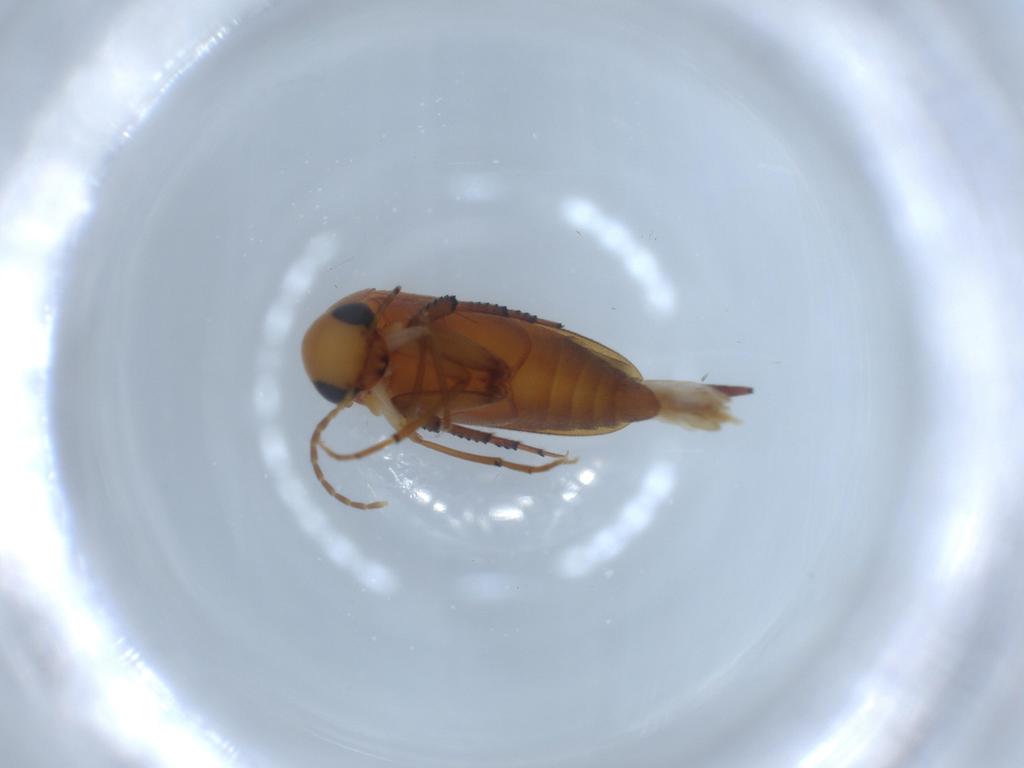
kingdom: Animalia
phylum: Arthropoda
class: Insecta
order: Coleoptera
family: Mordellidae
